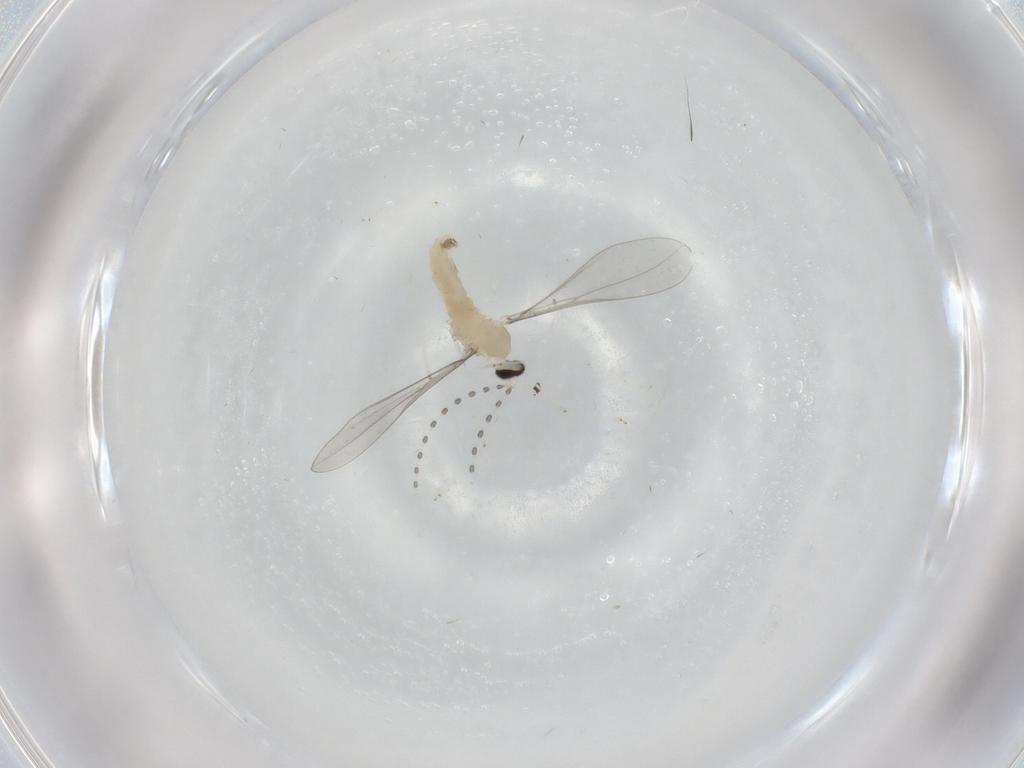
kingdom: Animalia
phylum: Arthropoda
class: Insecta
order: Diptera
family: Cecidomyiidae
